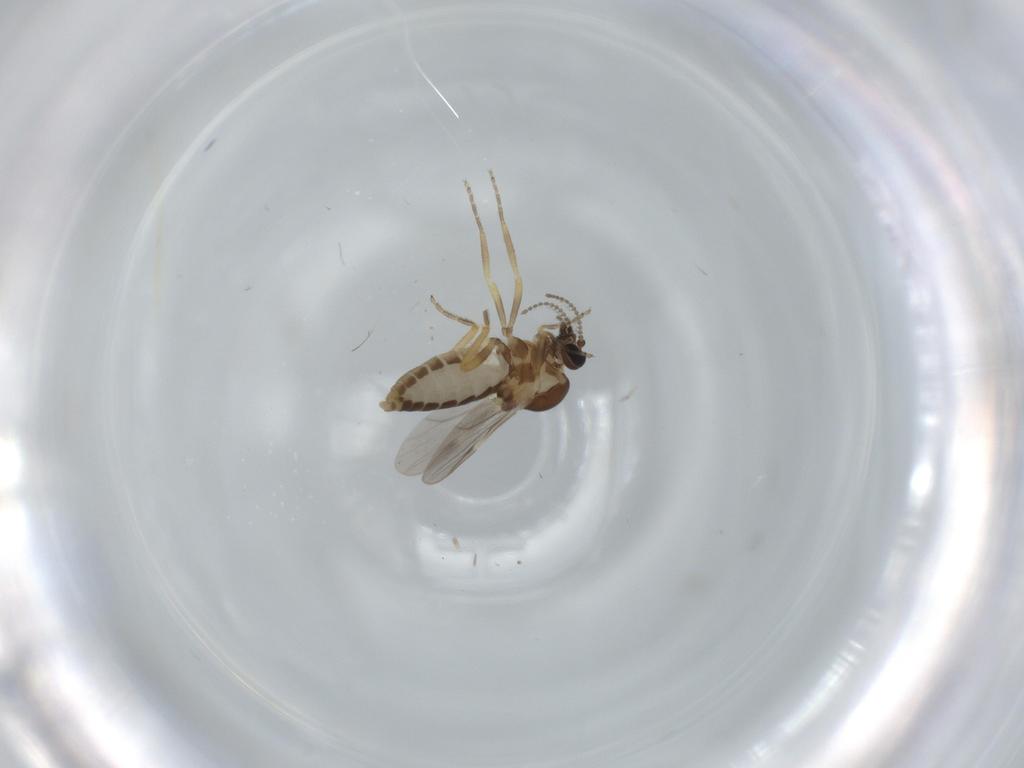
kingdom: Animalia
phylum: Arthropoda
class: Insecta
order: Diptera
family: Ceratopogonidae
